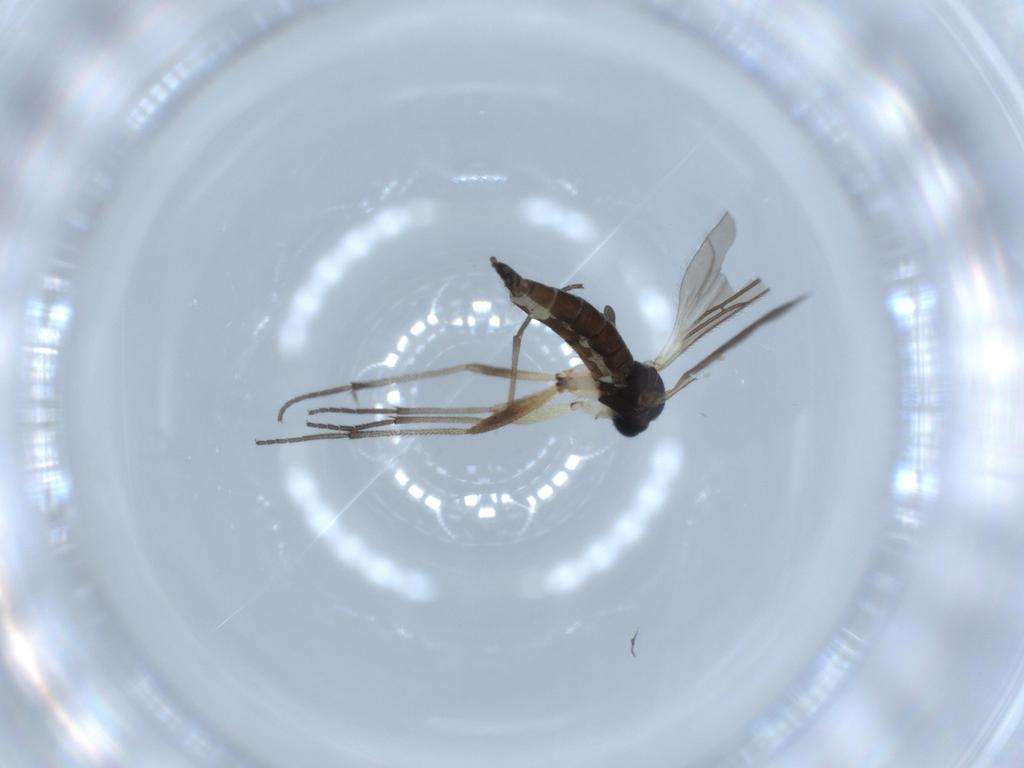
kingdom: Animalia
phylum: Arthropoda
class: Insecta
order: Diptera
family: Sciaridae
